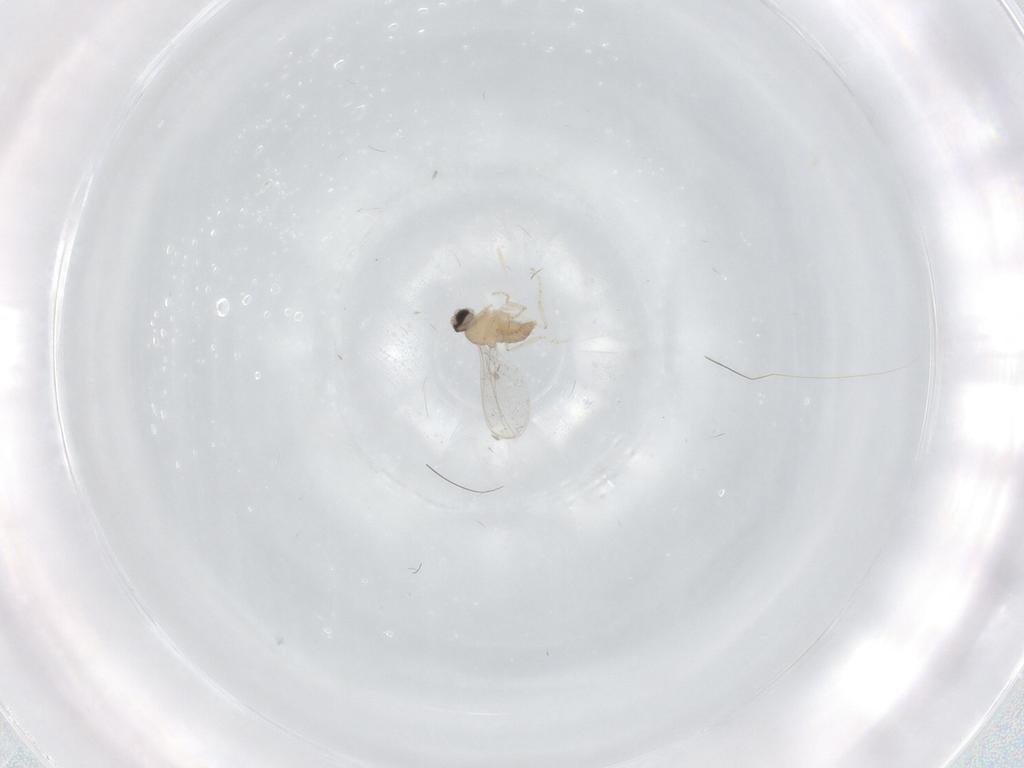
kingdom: Animalia
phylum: Arthropoda
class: Insecta
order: Diptera
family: Cecidomyiidae
